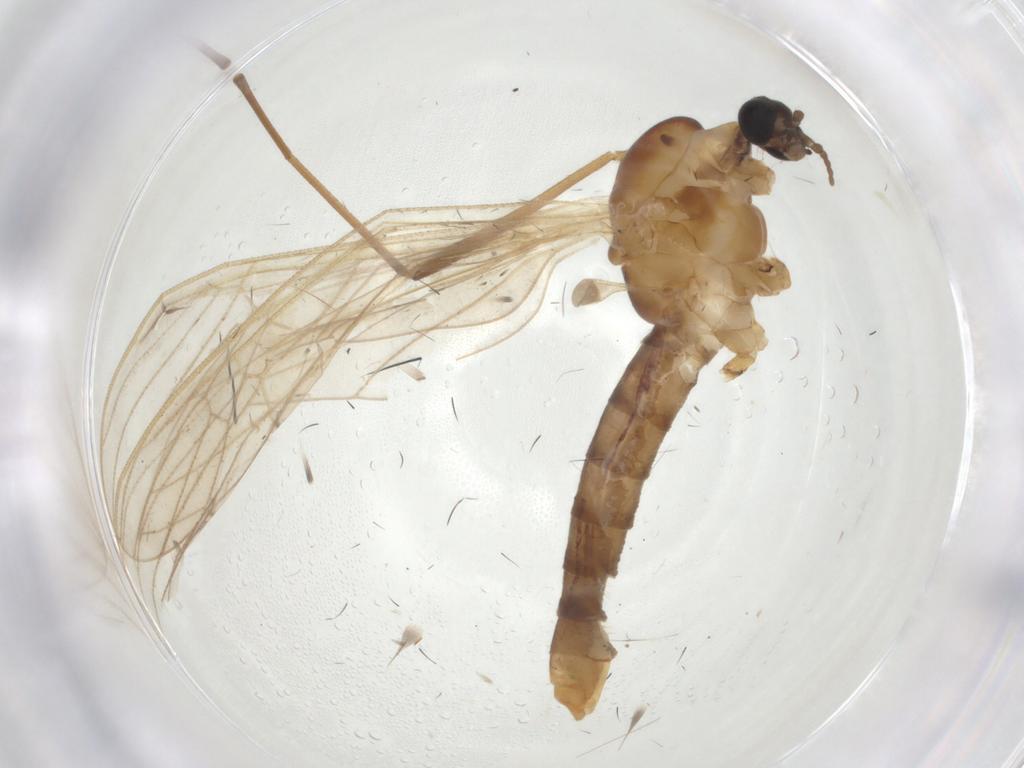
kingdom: Animalia
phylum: Arthropoda
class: Insecta
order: Diptera
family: Cecidomyiidae
